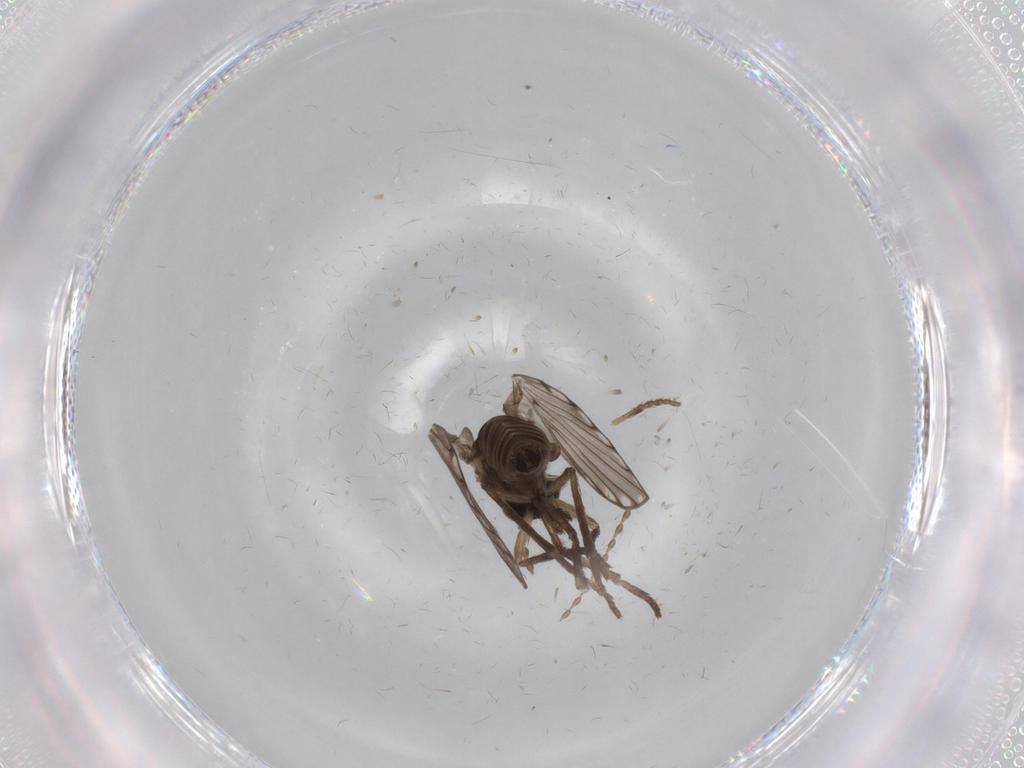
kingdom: Animalia
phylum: Arthropoda
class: Insecta
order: Diptera
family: Psychodidae
